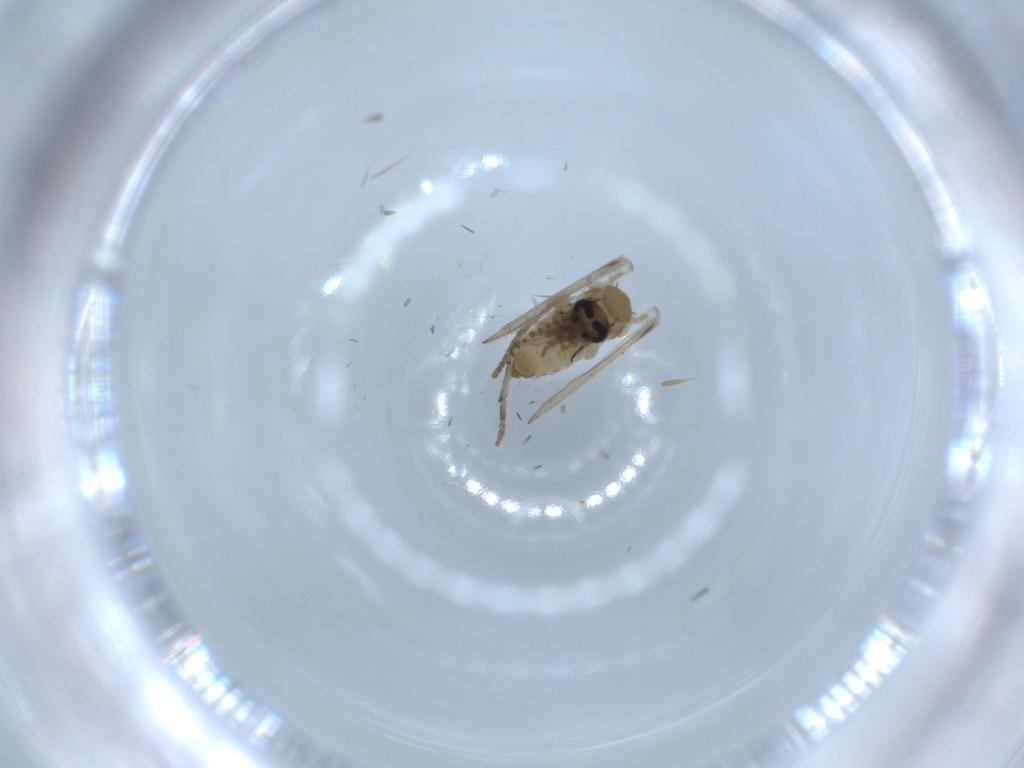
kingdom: Animalia
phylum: Arthropoda
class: Insecta
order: Diptera
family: Psychodidae
